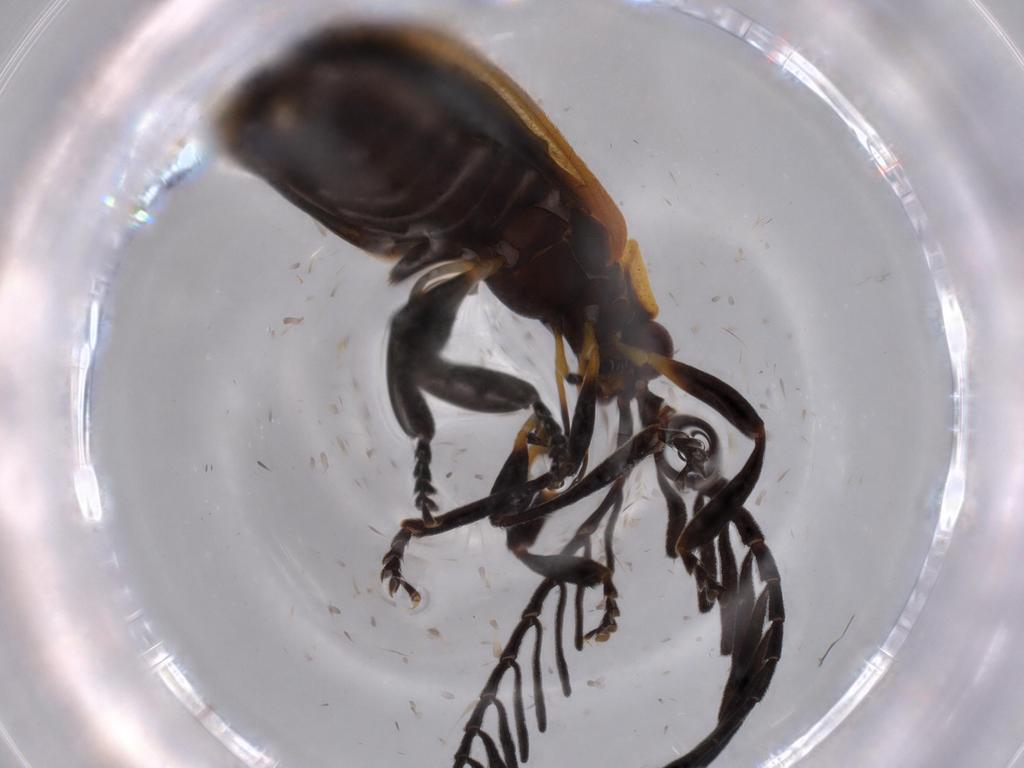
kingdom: Animalia
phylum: Arthropoda
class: Insecta
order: Coleoptera
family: Lycidae
